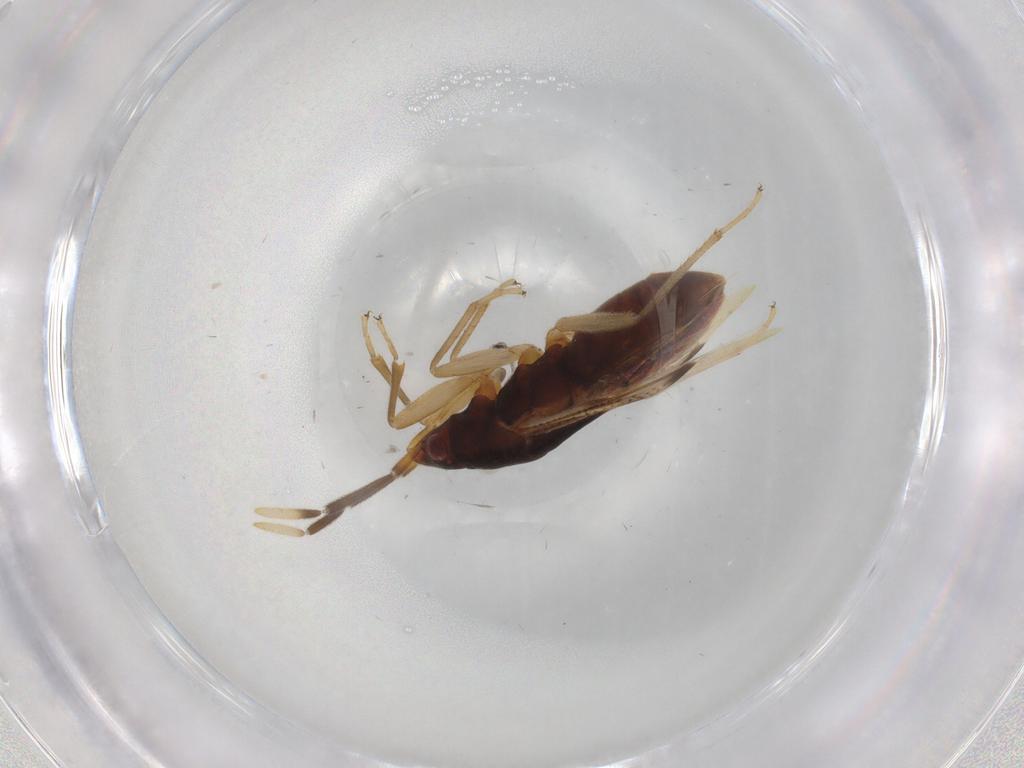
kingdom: Animalia
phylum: Arthropoda
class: Insecta
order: Hemiptera
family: Rhyparochromidae
